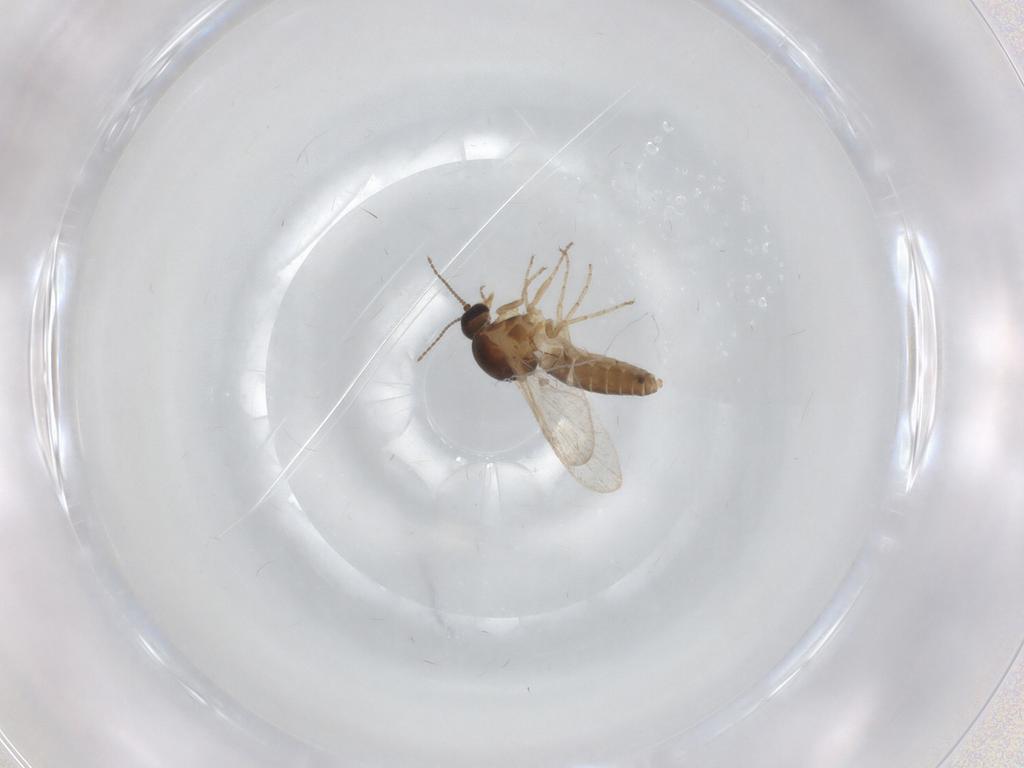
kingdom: Animalia
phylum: Arthropoda
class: Insecta
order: Diptera
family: Ceratopogonidae
